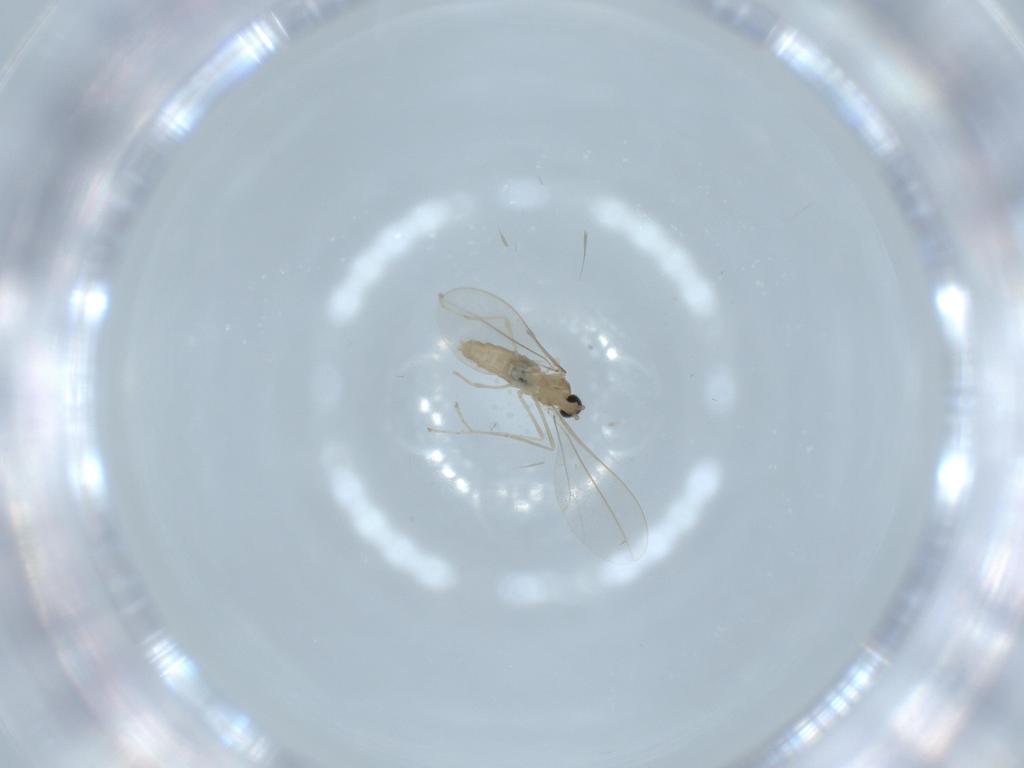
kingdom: Animalia
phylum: Arthropoda
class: Insecta
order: Diptera
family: Cecidomyiidae
